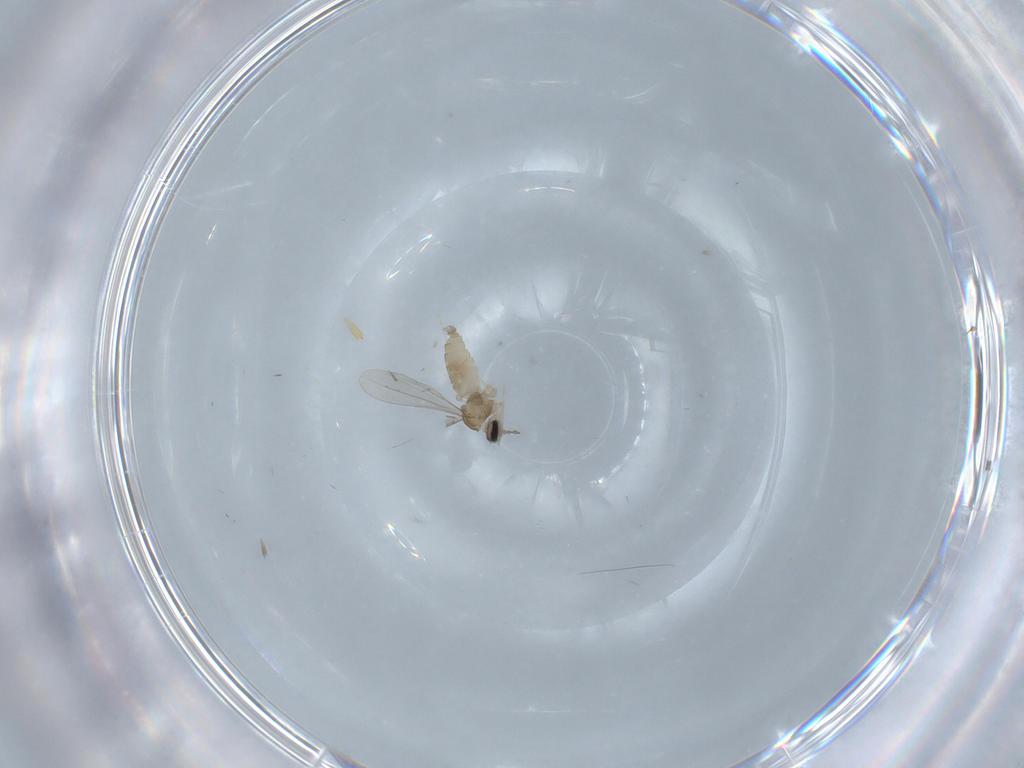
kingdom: Animalia
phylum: Arthropoda
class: Insecta
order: Diptera
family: Cecidomyiidae
